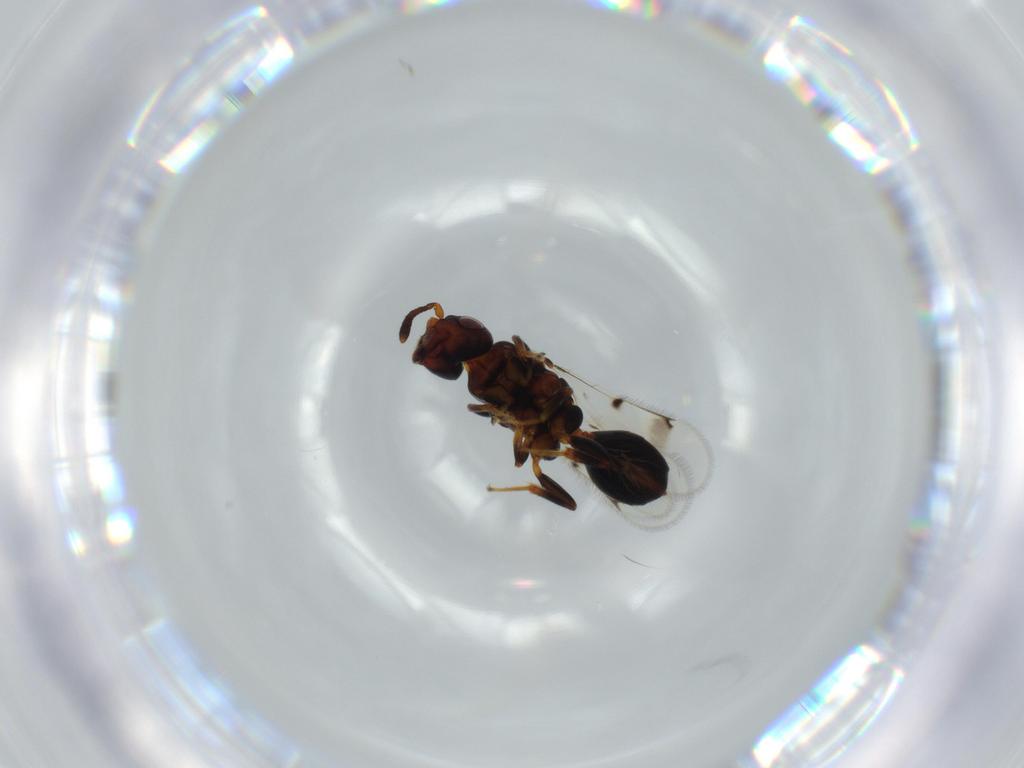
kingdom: Animalia
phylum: Arthropoda
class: Insecta
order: Hymenoptera
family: Cerocephalidae
